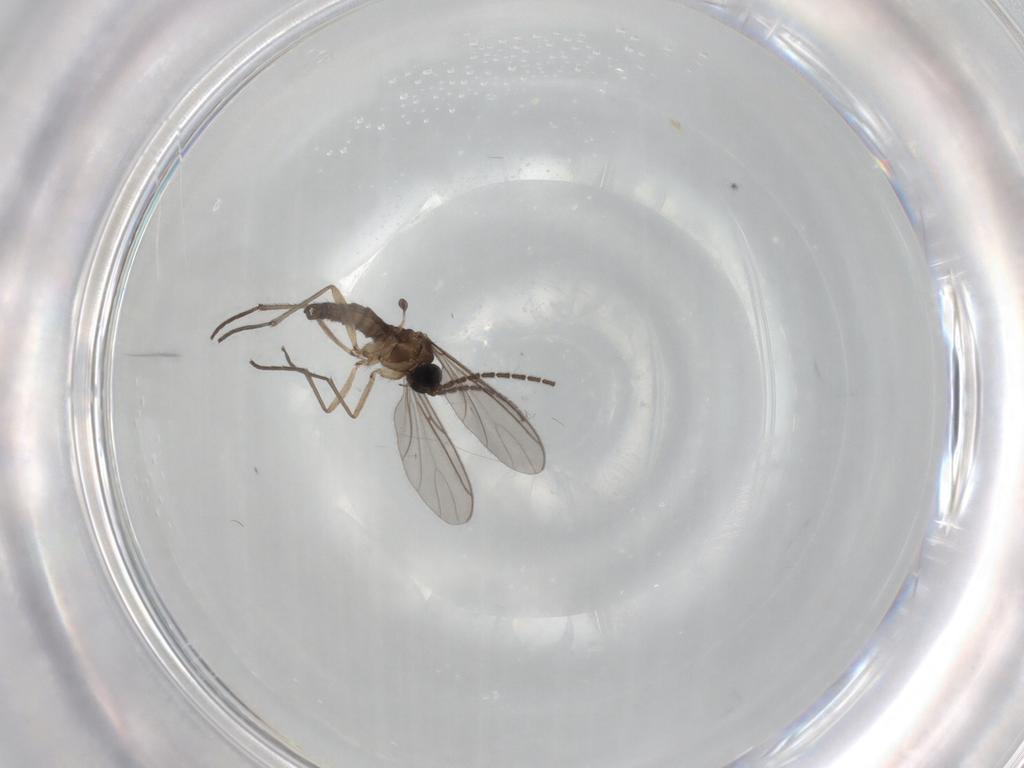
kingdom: Animalia
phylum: Arthropoda
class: Insecta
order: Diptera
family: Sciaridae
